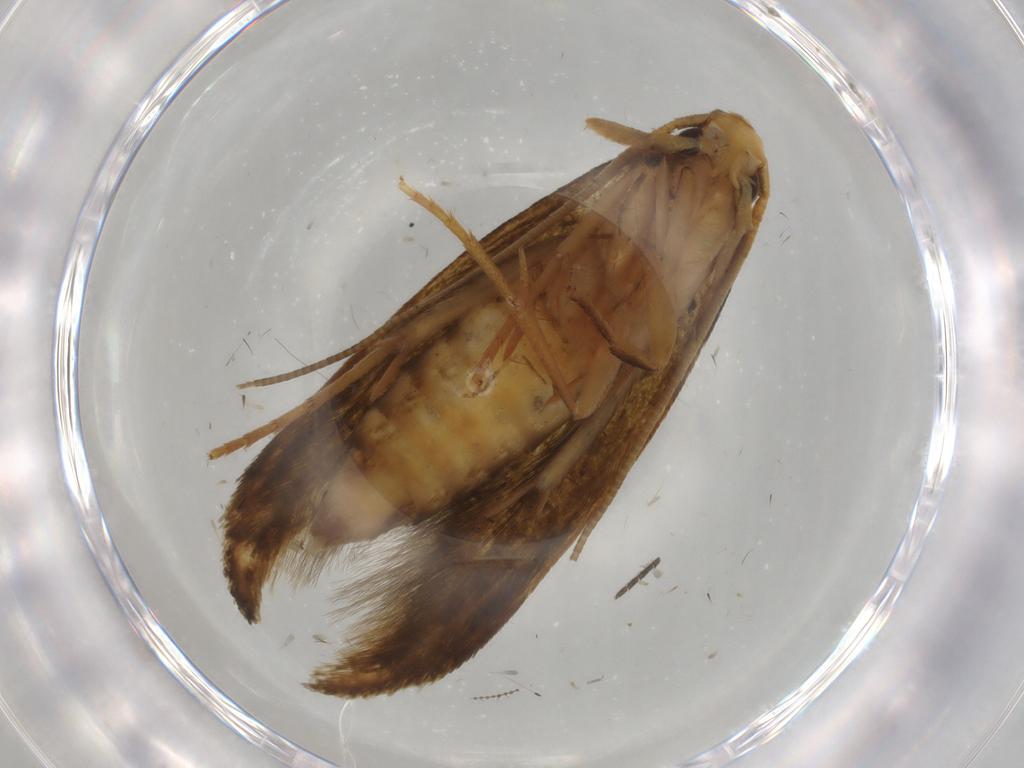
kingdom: Animalia
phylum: Arthropoda
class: Insecta
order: Lepidoptera
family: Tineidae
